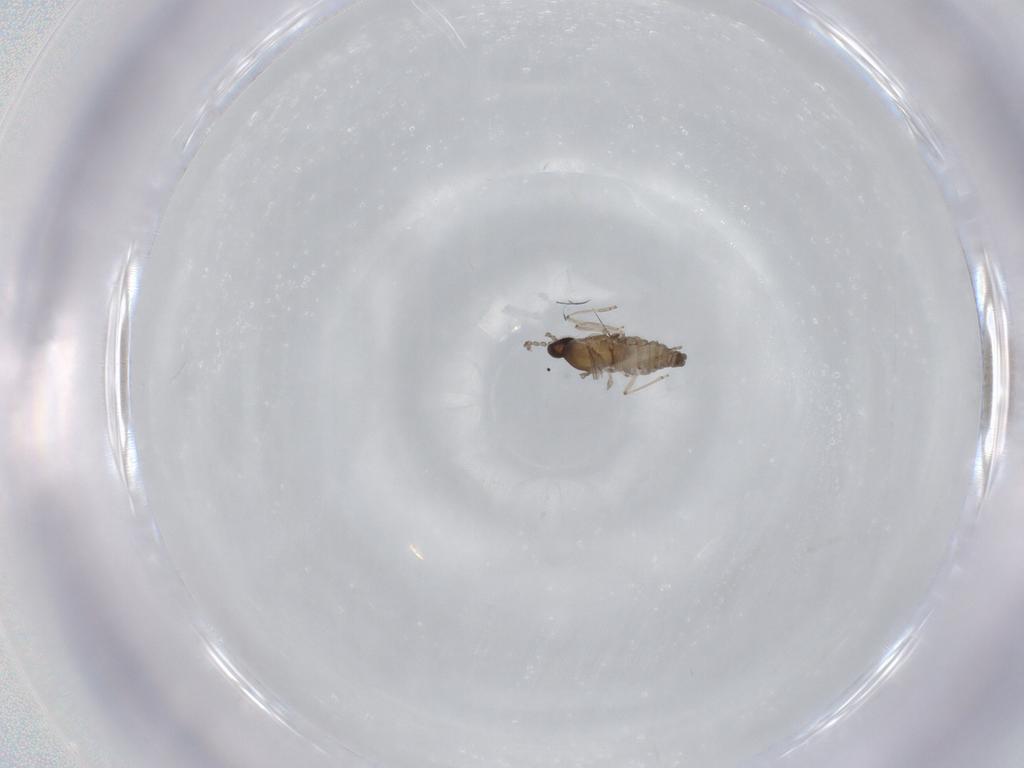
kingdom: Animalia
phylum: Arthropoda
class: Insecta
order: Diptera
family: Cecidomyiidae
